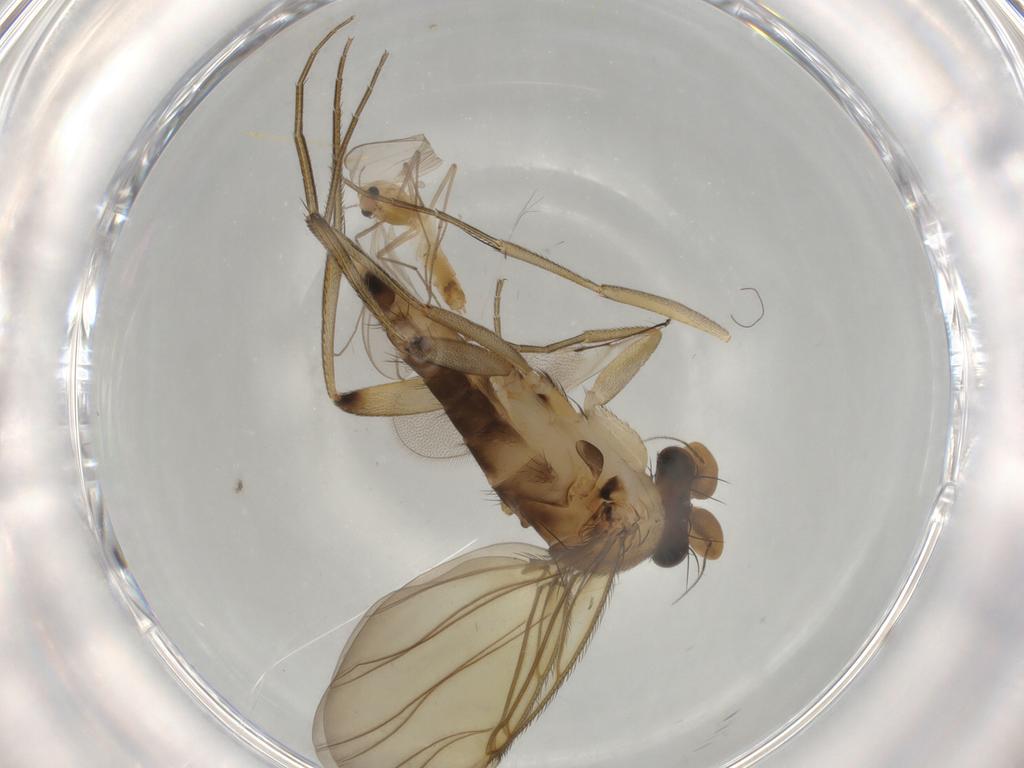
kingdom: Animalia
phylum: Arthropoda
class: Insecta
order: Diptera
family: Phoridae
